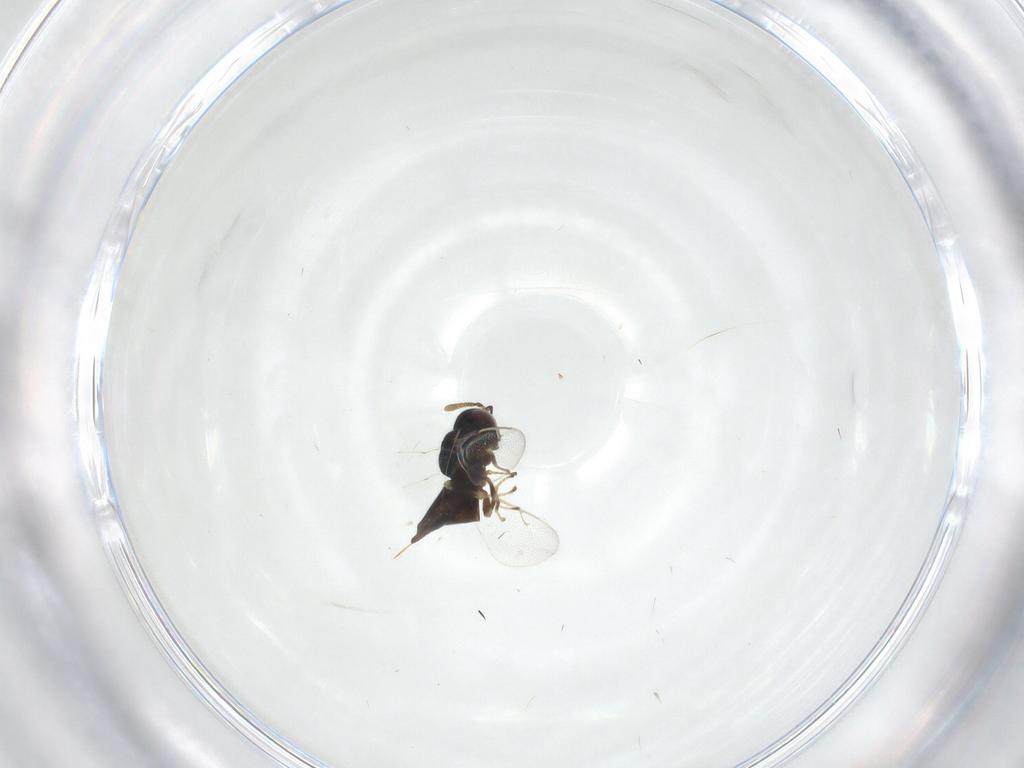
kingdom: Animalia
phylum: Arthropoda
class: Insecta
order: Hymenoptera
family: Pteromalidae
